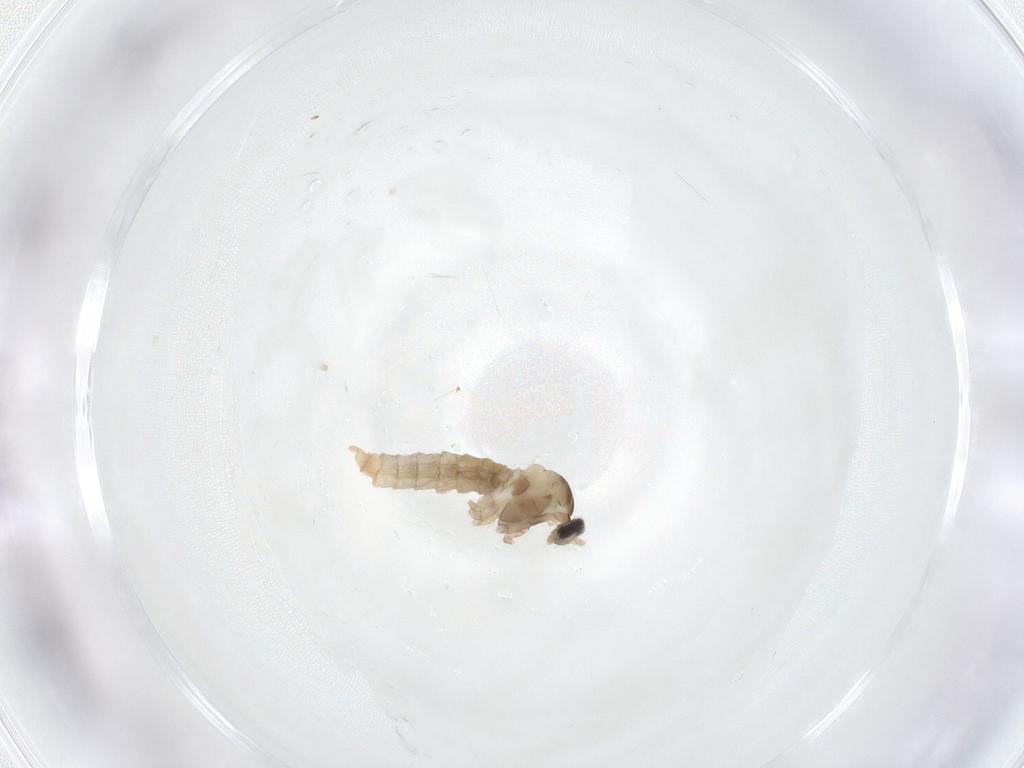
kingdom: Animalia
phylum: Arthropoda
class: Insecta
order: Diptera
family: Cecidomyiidae
